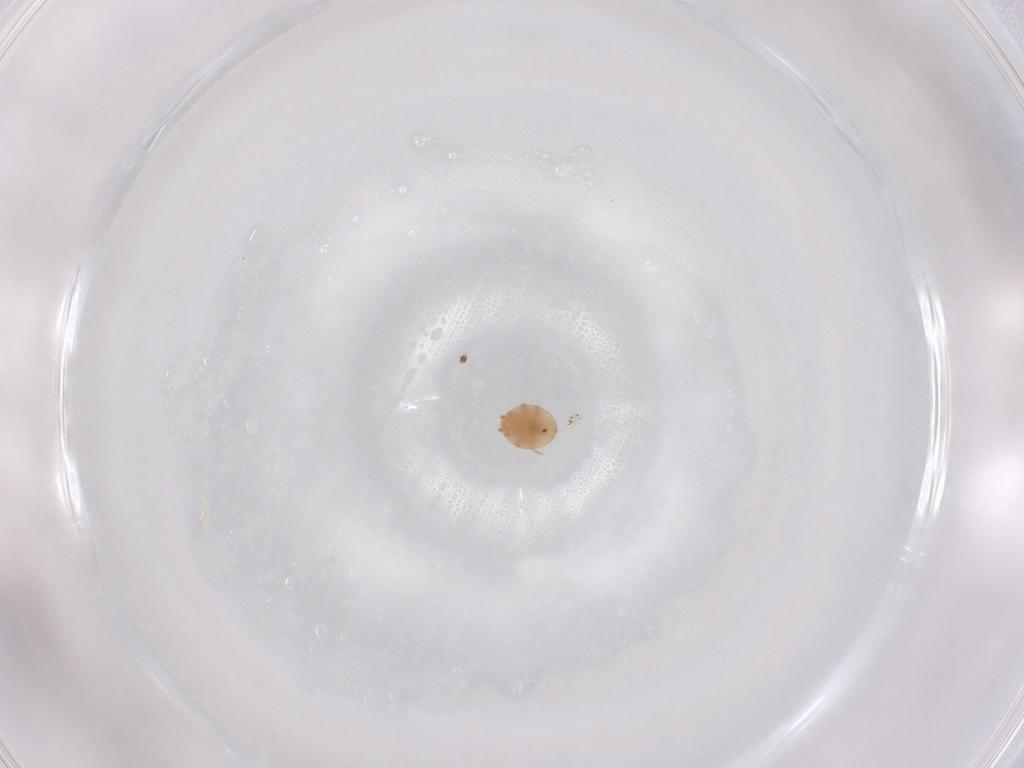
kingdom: Animalia
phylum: Arthropoda
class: Arachnida
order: Mesostigmata
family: Trematuridae
